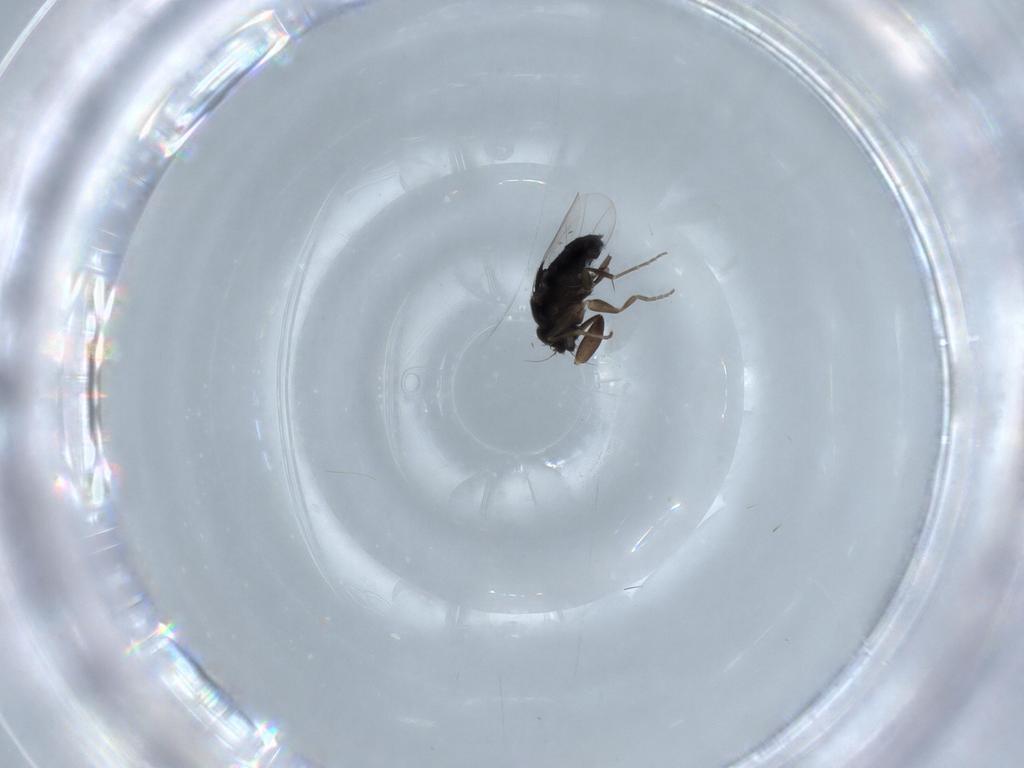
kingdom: Animalia
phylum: Arthropoda
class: Insecta
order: Diptera
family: Phoridae
